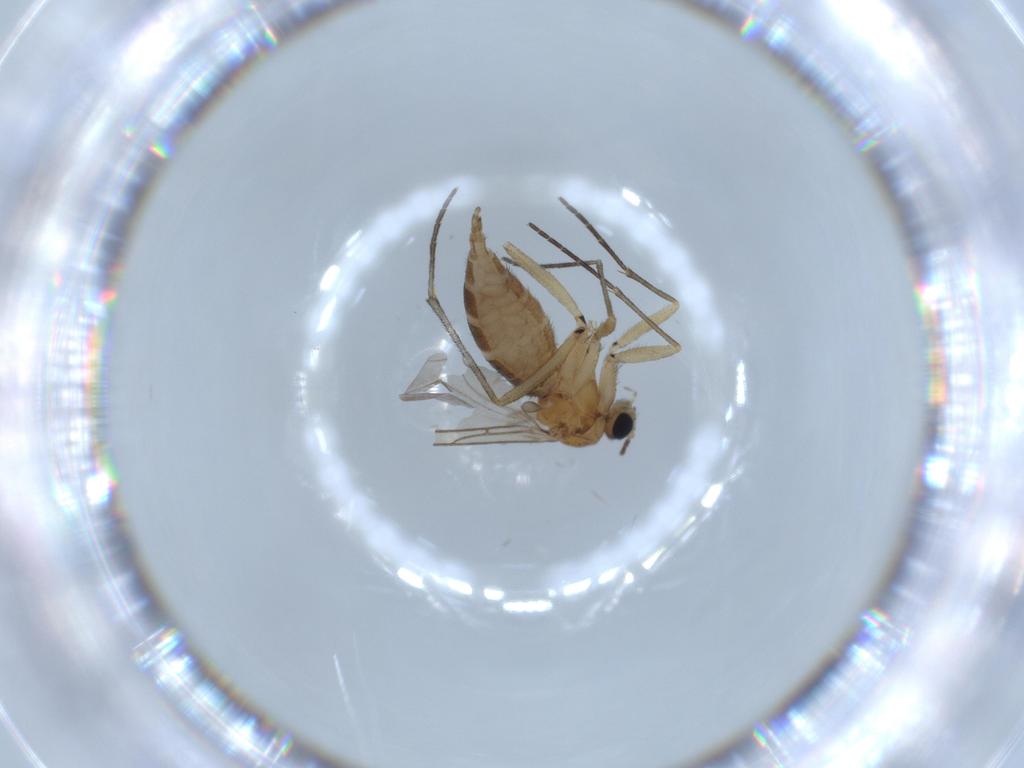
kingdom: Animalia
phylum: Arthropoda
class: Insecta
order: Diptera
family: Sciaridae
